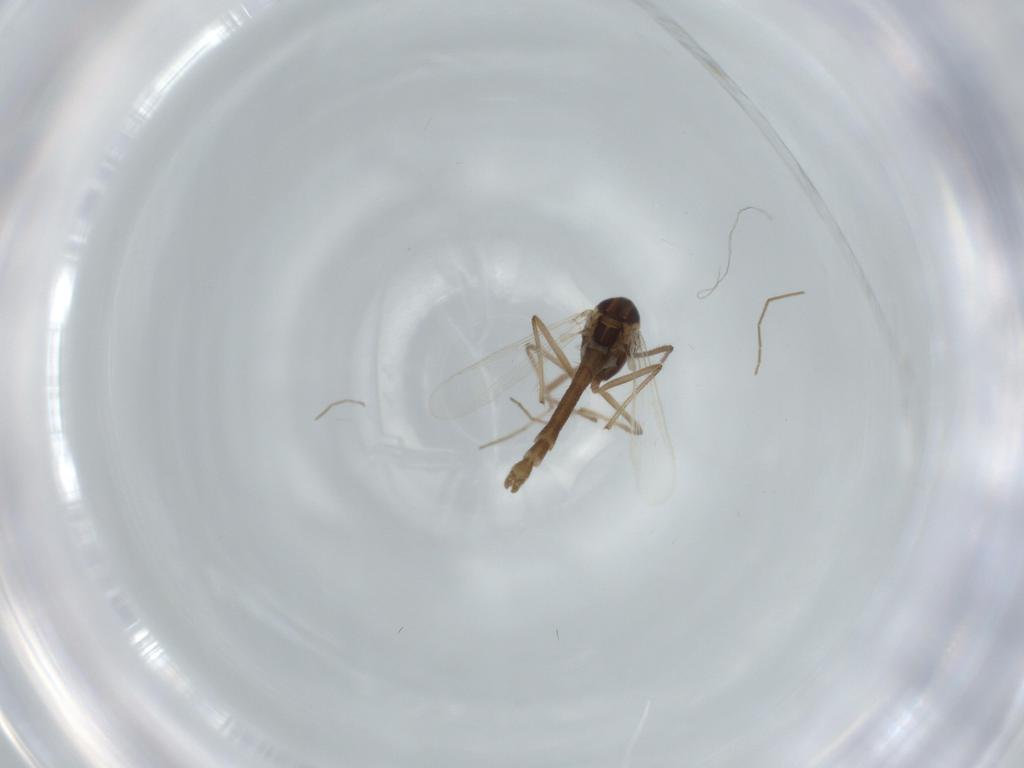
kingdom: Animalia
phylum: Arthropoda
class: Insecta
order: Diptera
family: Chironomidae
